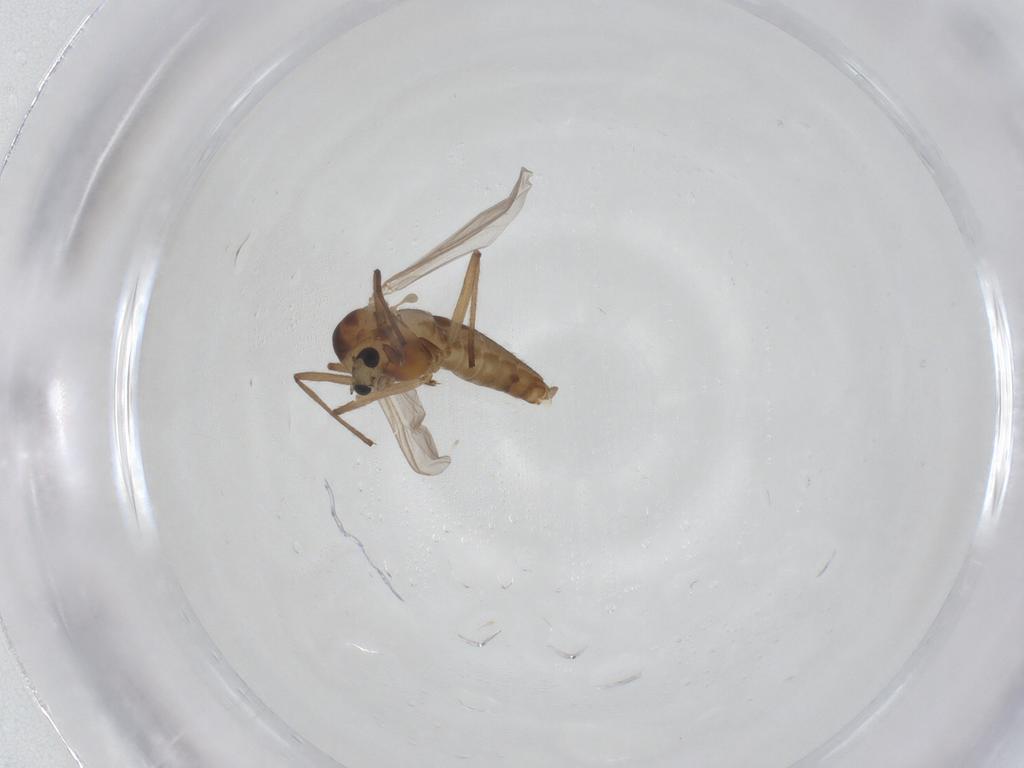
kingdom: Animalia
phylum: Arthropoda
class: Insecta
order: Diptera
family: Chironomidae
